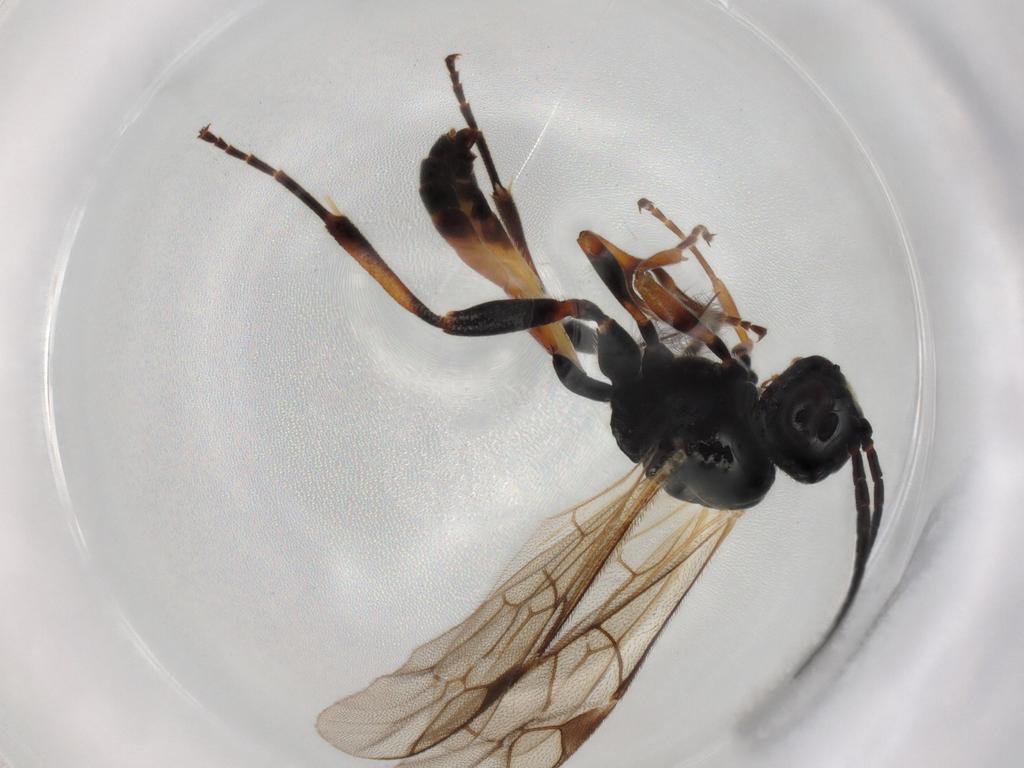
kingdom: Animalia
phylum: Arthropoda
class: Insecta
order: Hymenoptera
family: Ichneumonidae
